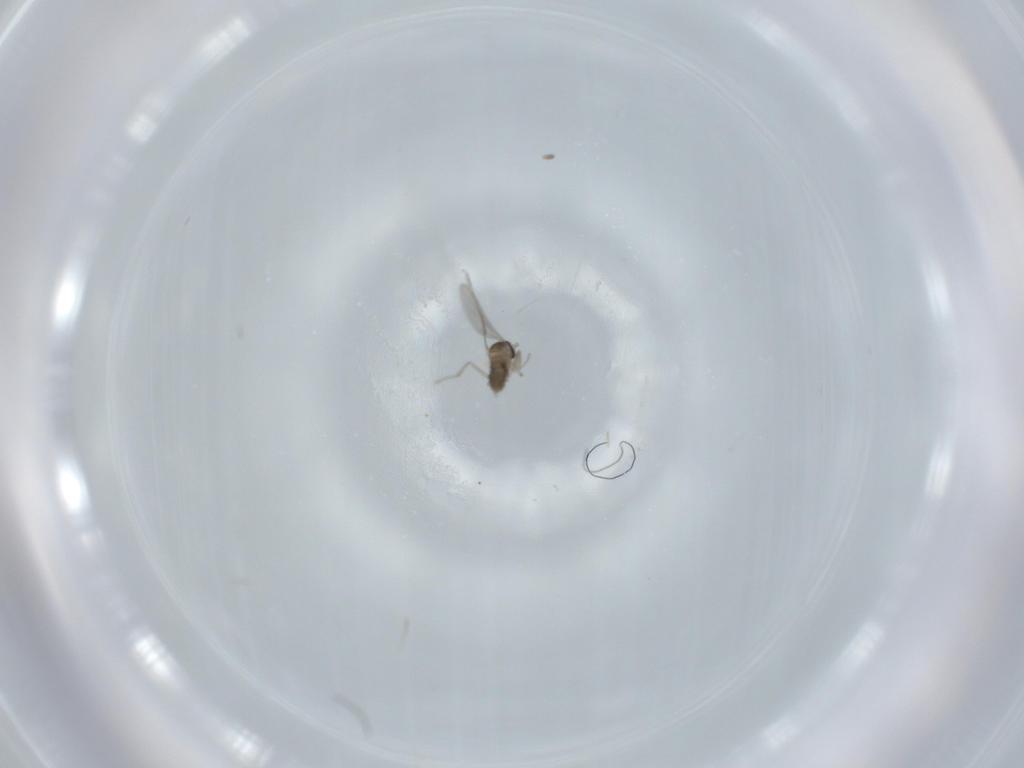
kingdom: Animalia
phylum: Arthropoda
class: Insecta
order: Diptera
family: Cecidomyiidae
